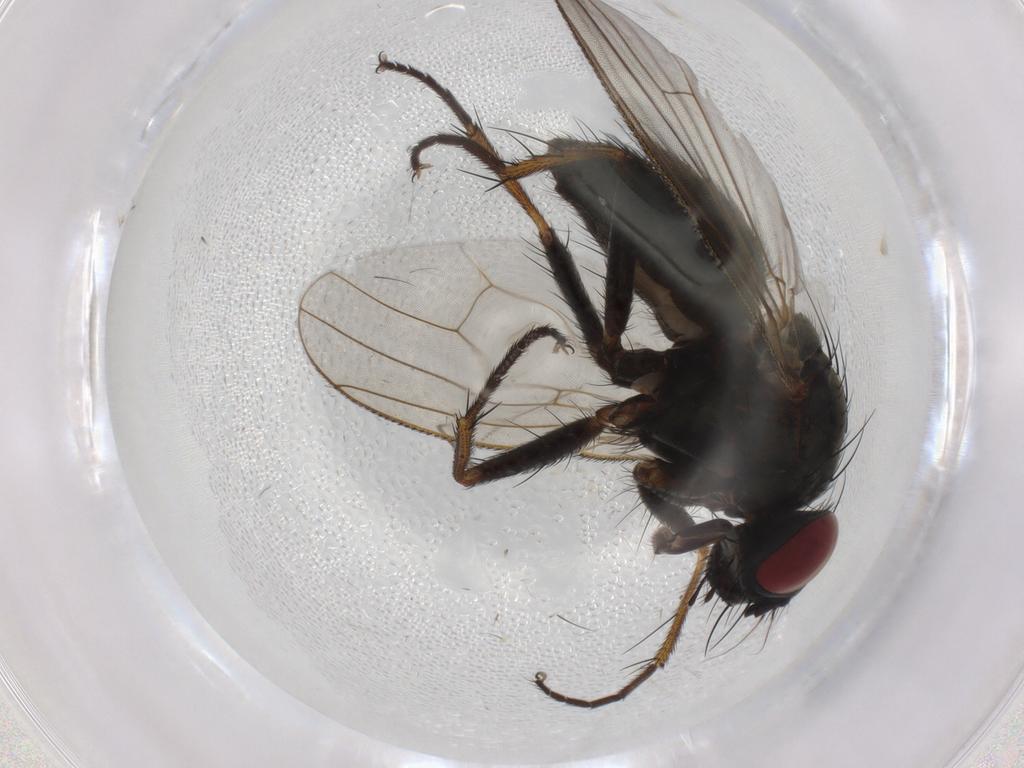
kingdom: Animalia
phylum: Arthropoda
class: Insecta
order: Diptera
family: Muscidae
